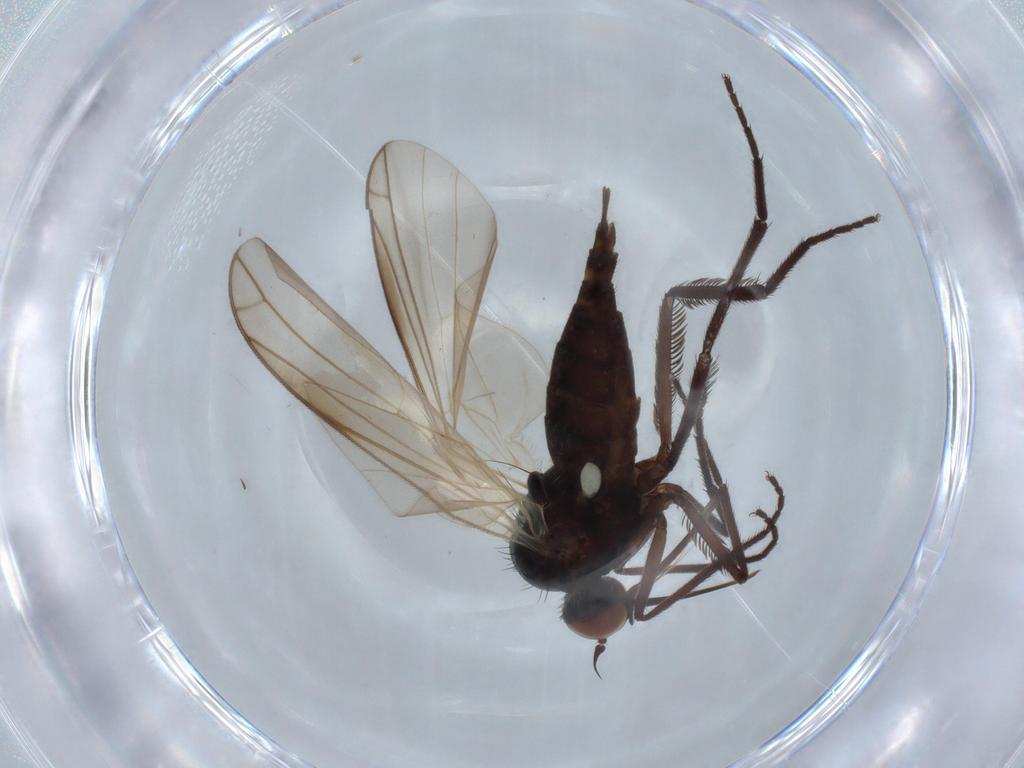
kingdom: Animalia
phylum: Arthropoda
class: Insecta
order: Diptera
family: Empididae
